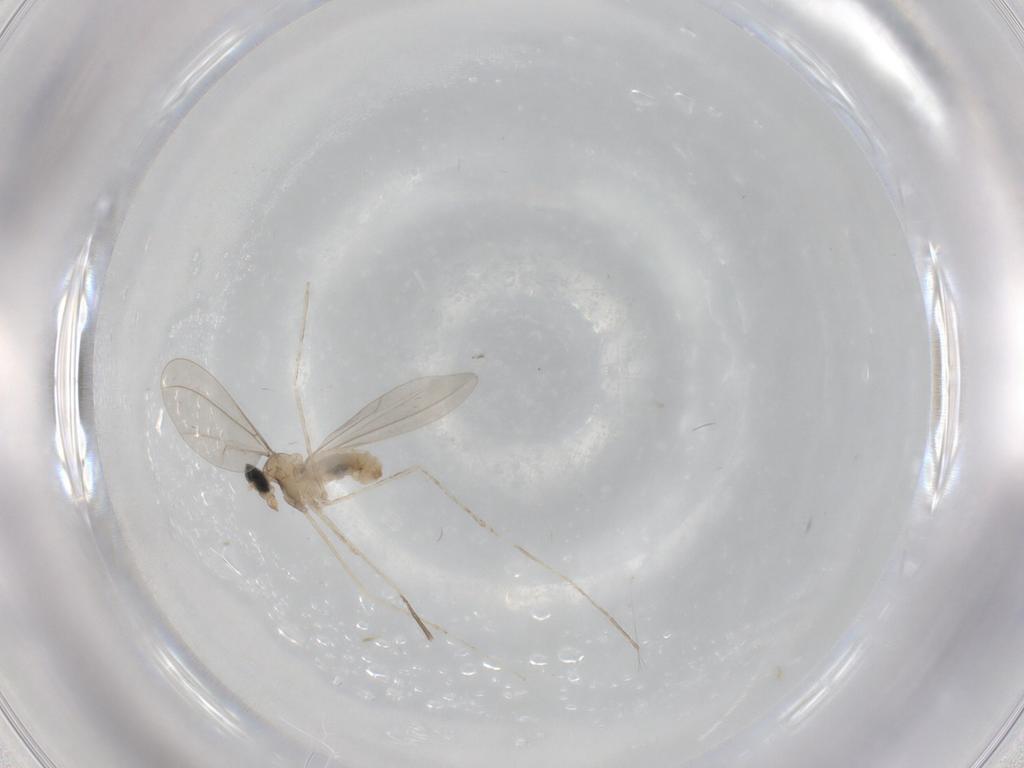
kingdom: Animalia
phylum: Arthropoda
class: Insecta
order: Diptera
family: Cecidomyiidae
